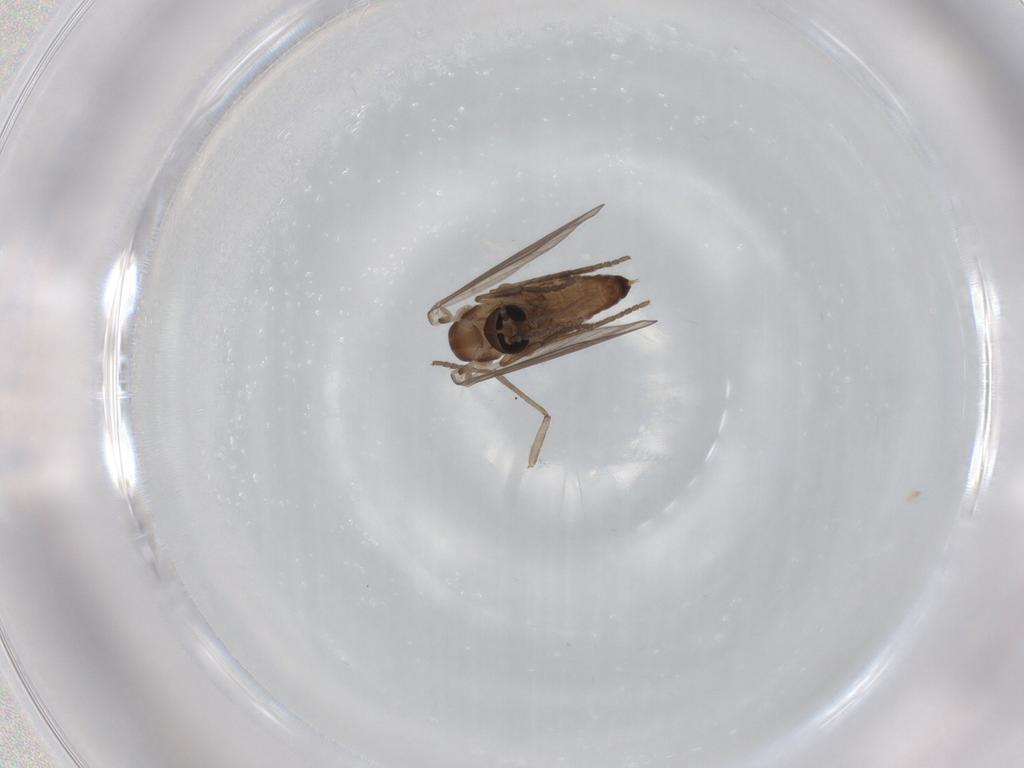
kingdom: Animalia
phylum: Arthropoda
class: Insecta
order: Diptera
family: Psychodidae
